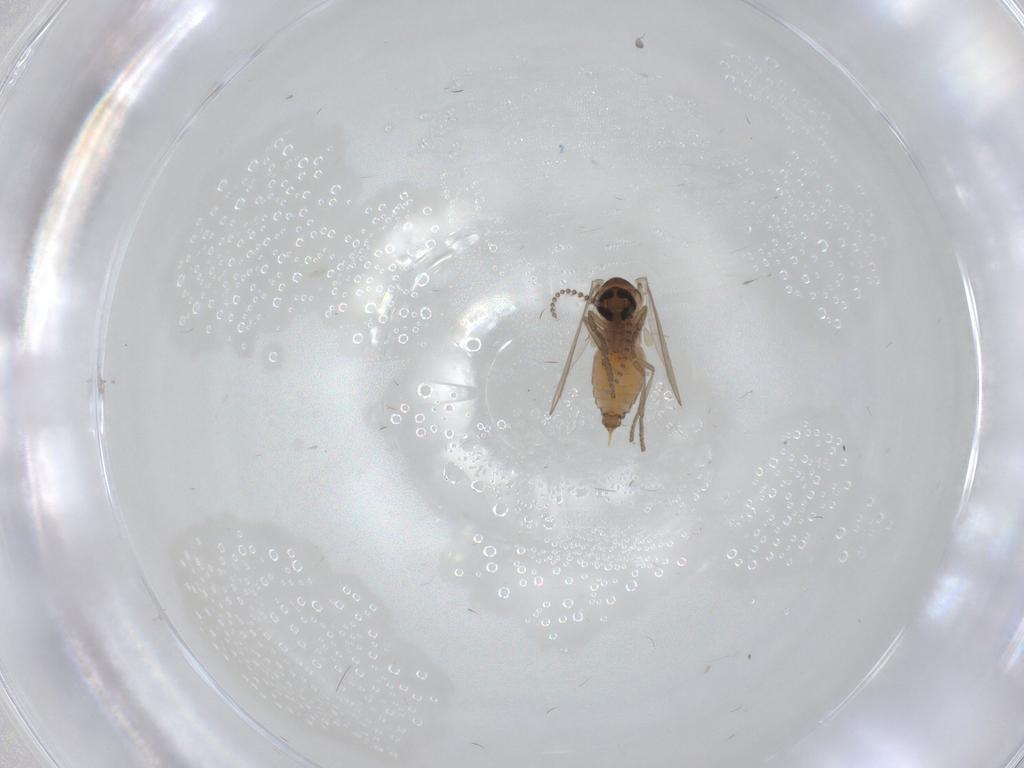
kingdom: Animalia
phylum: Arthropoda
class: Insecta
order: Diptera
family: Psychodidae
